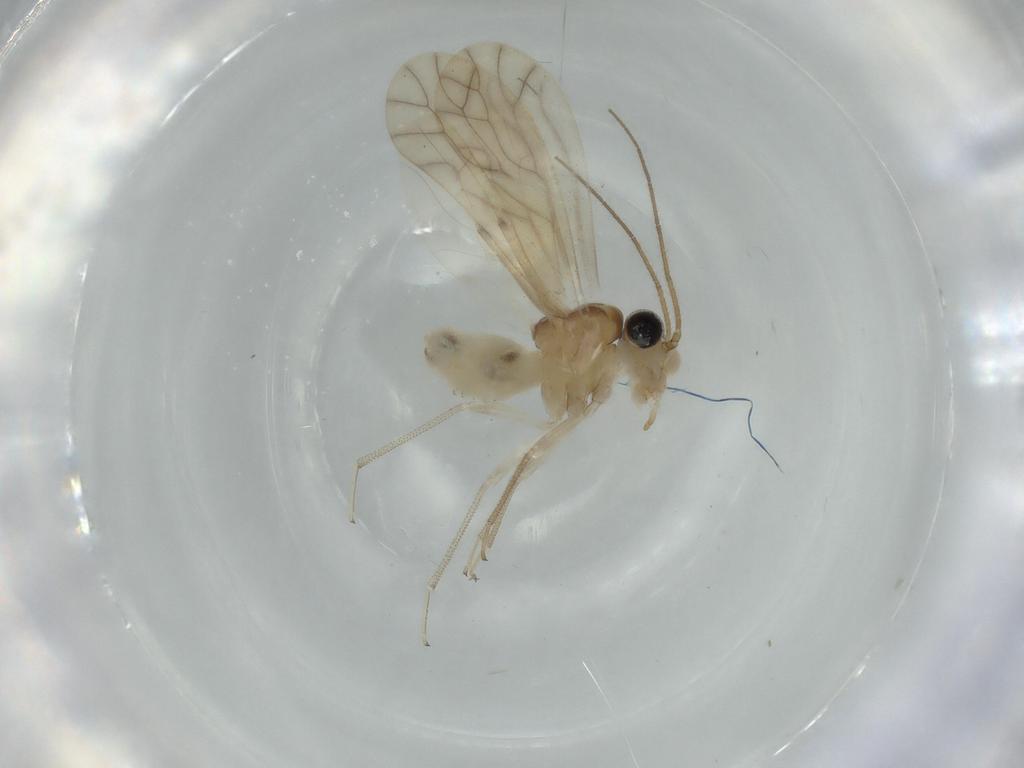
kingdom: Animalia
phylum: Arthropoda
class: Insecta
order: Psocodea
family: Caeciliusidae
